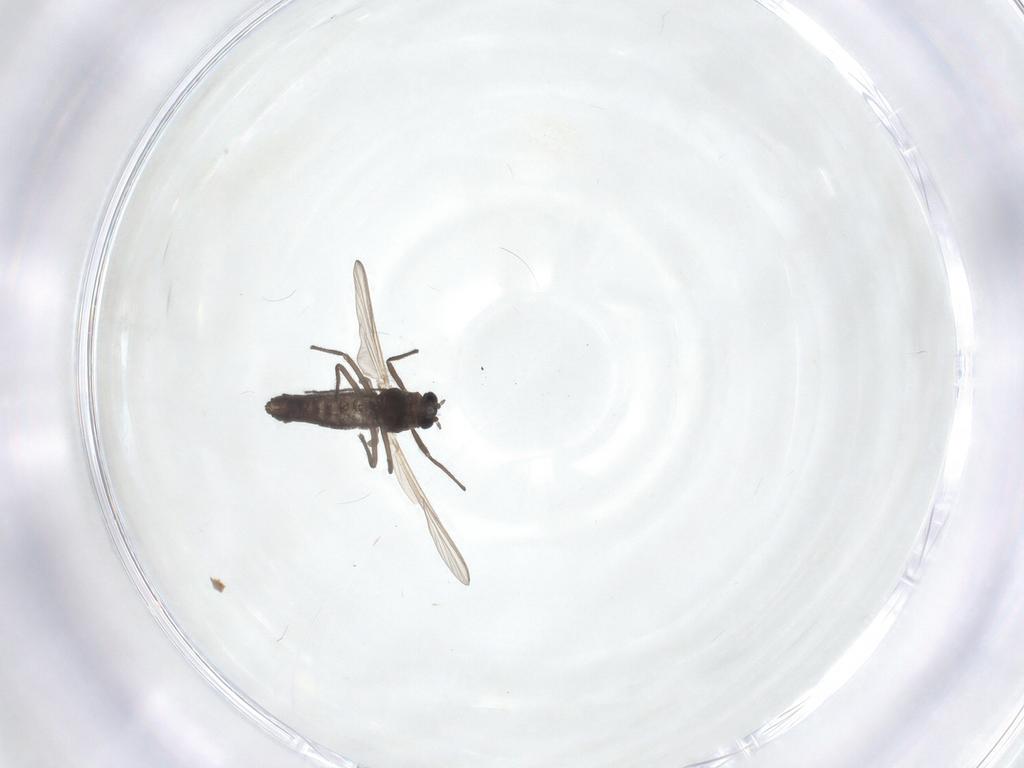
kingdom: Animalia
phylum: Arthropoda
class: Insecta
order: Diptera
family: Chironomidae
